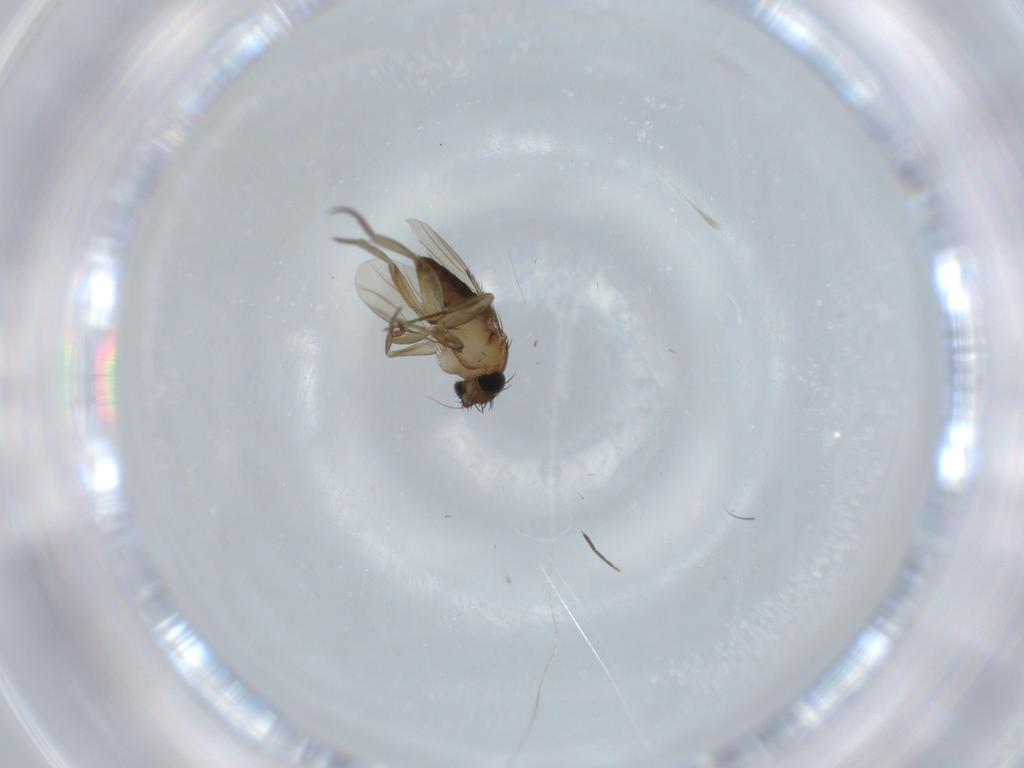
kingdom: Animalia
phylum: Arthropoda
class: Insecta
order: Diptera
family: Phoridae
